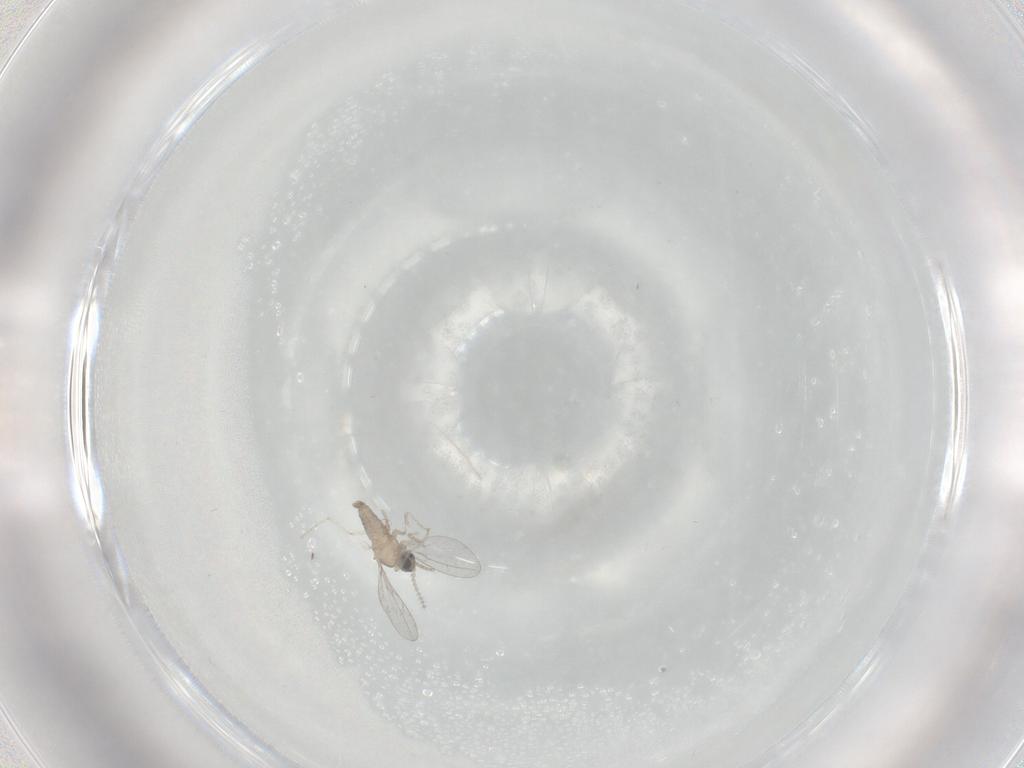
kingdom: Animalia
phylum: Arthropoda
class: Insecta
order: Diptera
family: Cecidomyiidae
